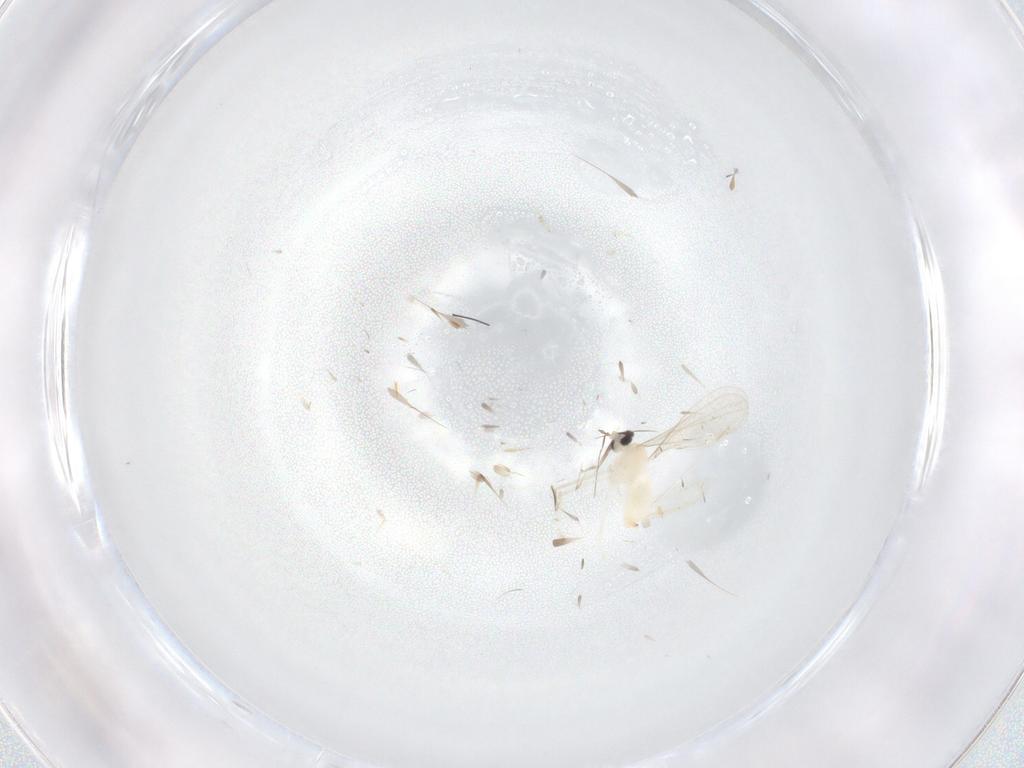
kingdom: Animalia
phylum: Arthropoda
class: Insecta
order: Diptera
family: Cecidomyiidae
